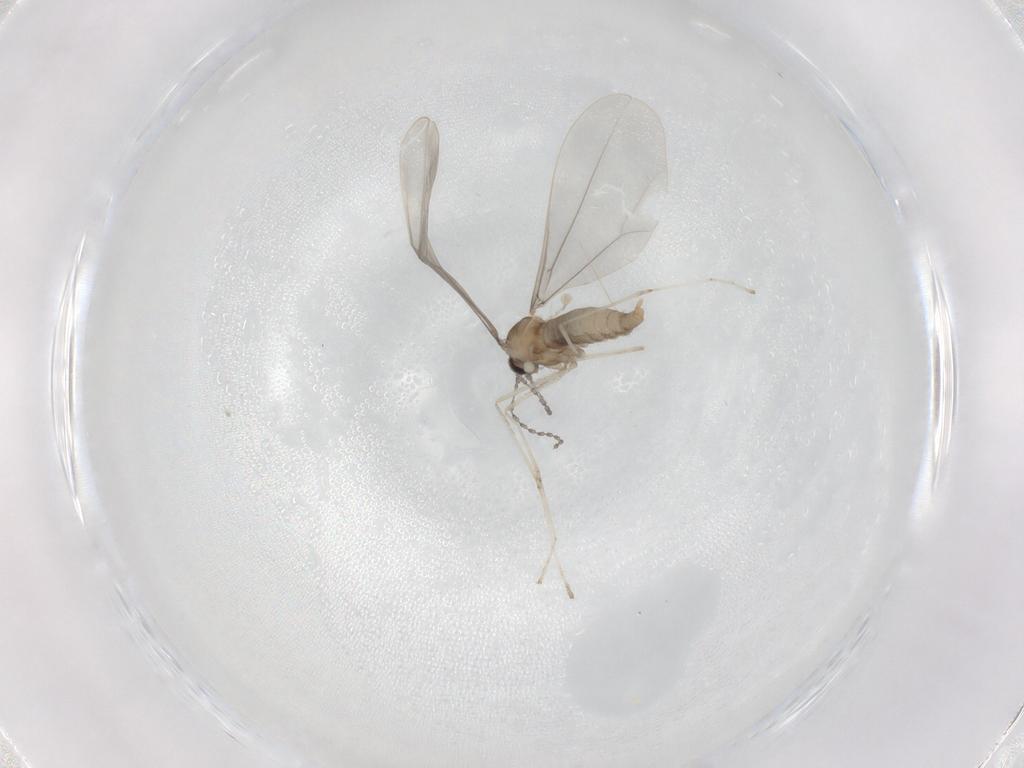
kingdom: Animalia
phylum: Arthropoda
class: Insecta
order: Diptera
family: Cecidomyiidae
